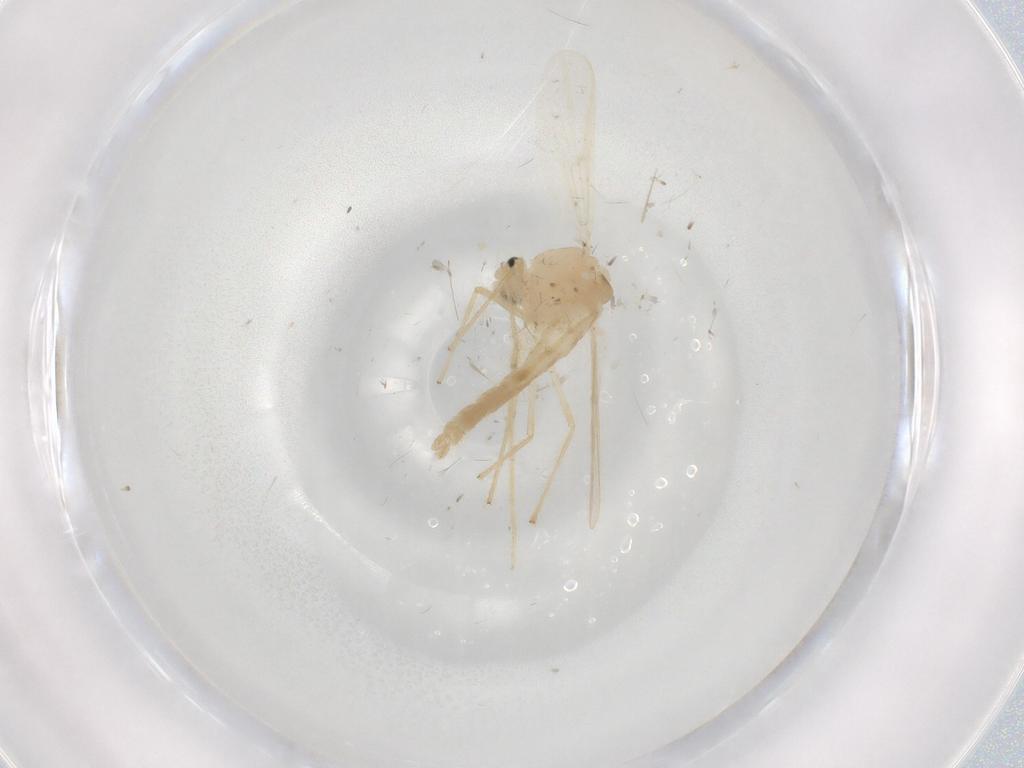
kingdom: Animalia
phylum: Arthropoda
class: Insecta
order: Diptera
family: Chironomidae
